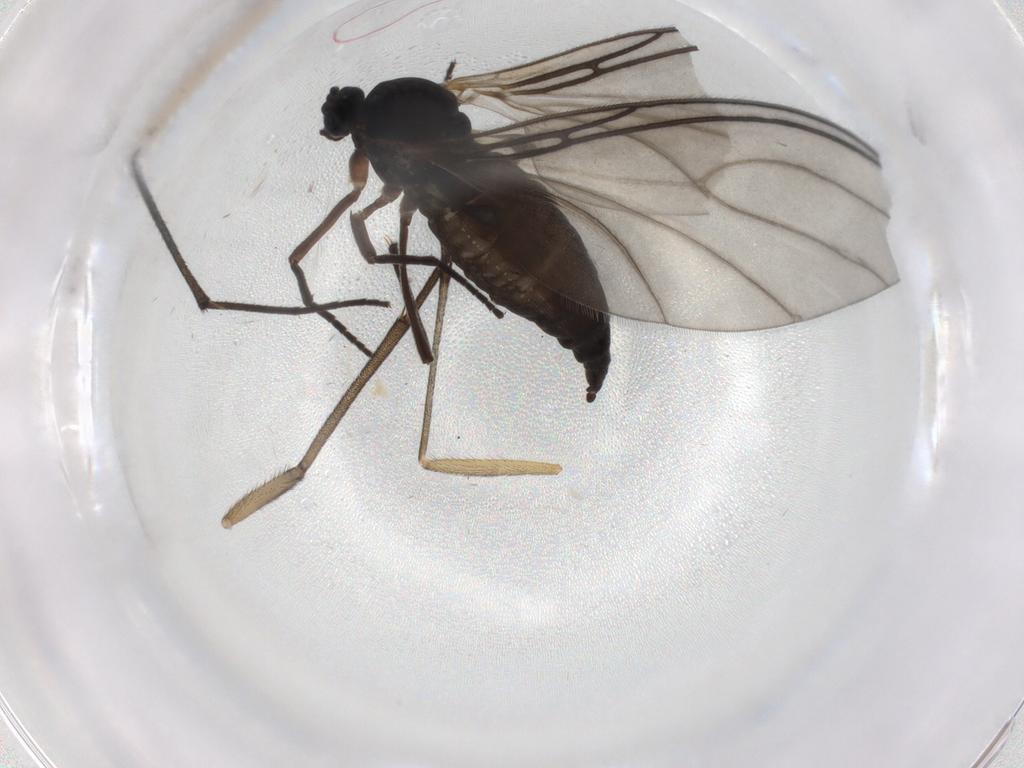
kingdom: Animalia
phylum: Arthropoda
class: Insecta
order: Diptera
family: Sciaridae
